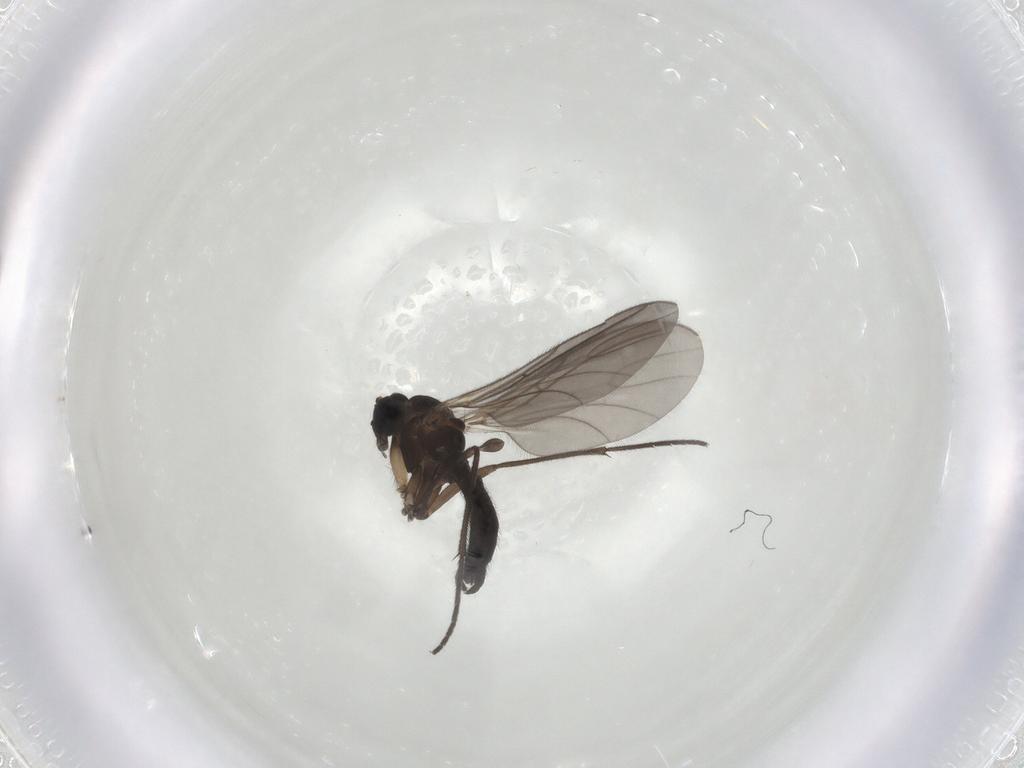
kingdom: Animalia
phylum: Arthropoda
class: Insecta
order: Diptera
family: Sciaridae
